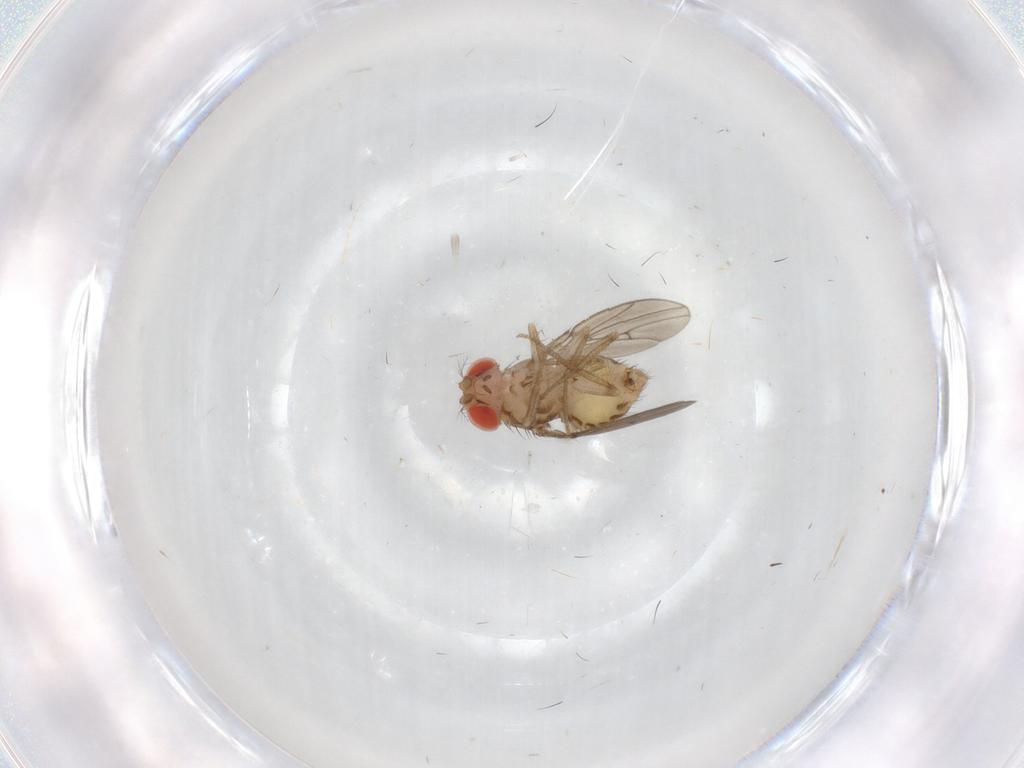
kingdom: Animalia
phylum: Arthropoda
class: Insecta
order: Diptera
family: Drosophilidae
